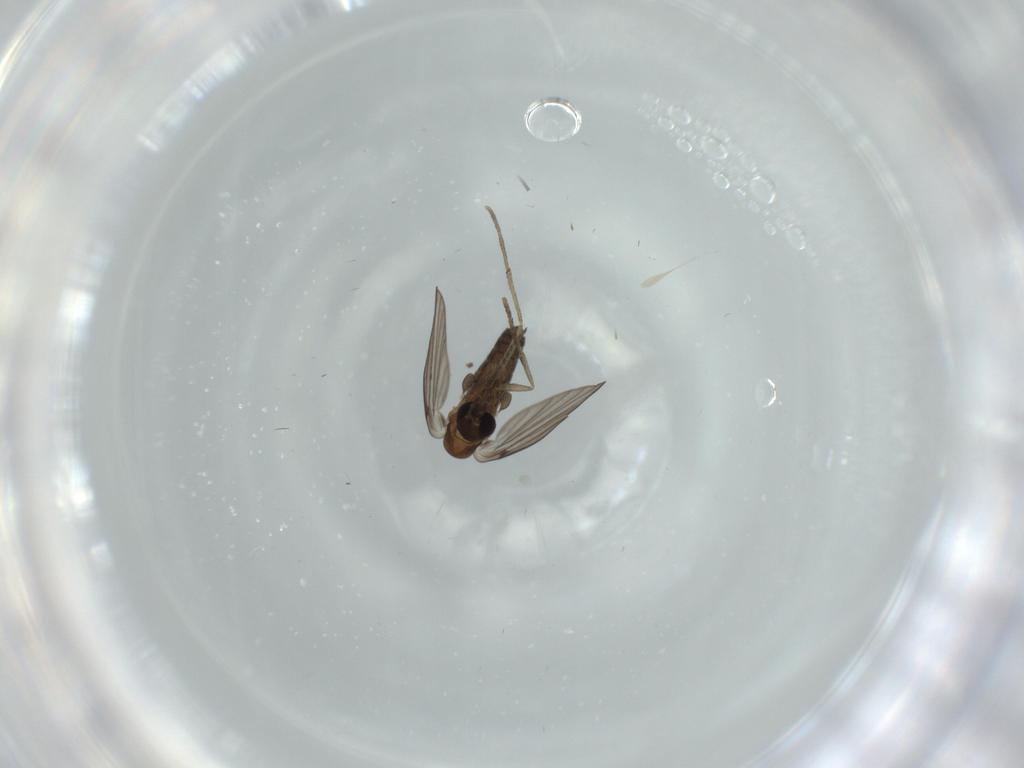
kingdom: Animalia
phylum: Arthropoda
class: Insecta
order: Diptera
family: Psychodidae
